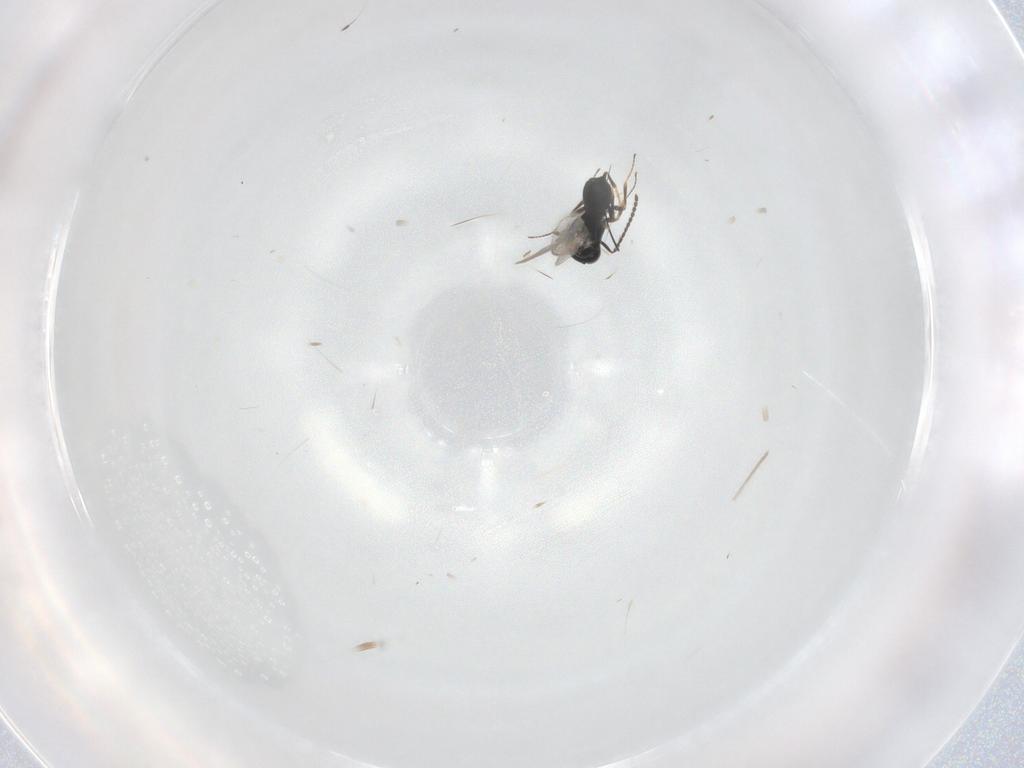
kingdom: Animalia
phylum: Arthropoda
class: Insecta
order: Hymenoptera
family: Scelionidae
